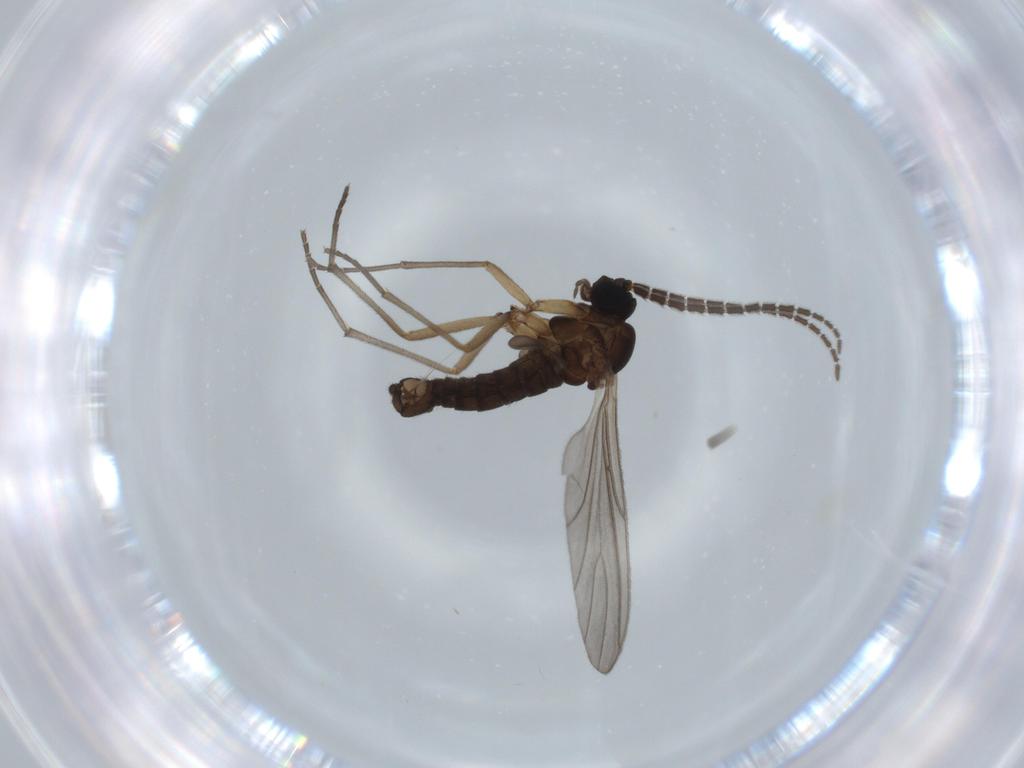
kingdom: Animalia
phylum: Arthropoda
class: Insecta
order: Diptera
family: Sciaridae
